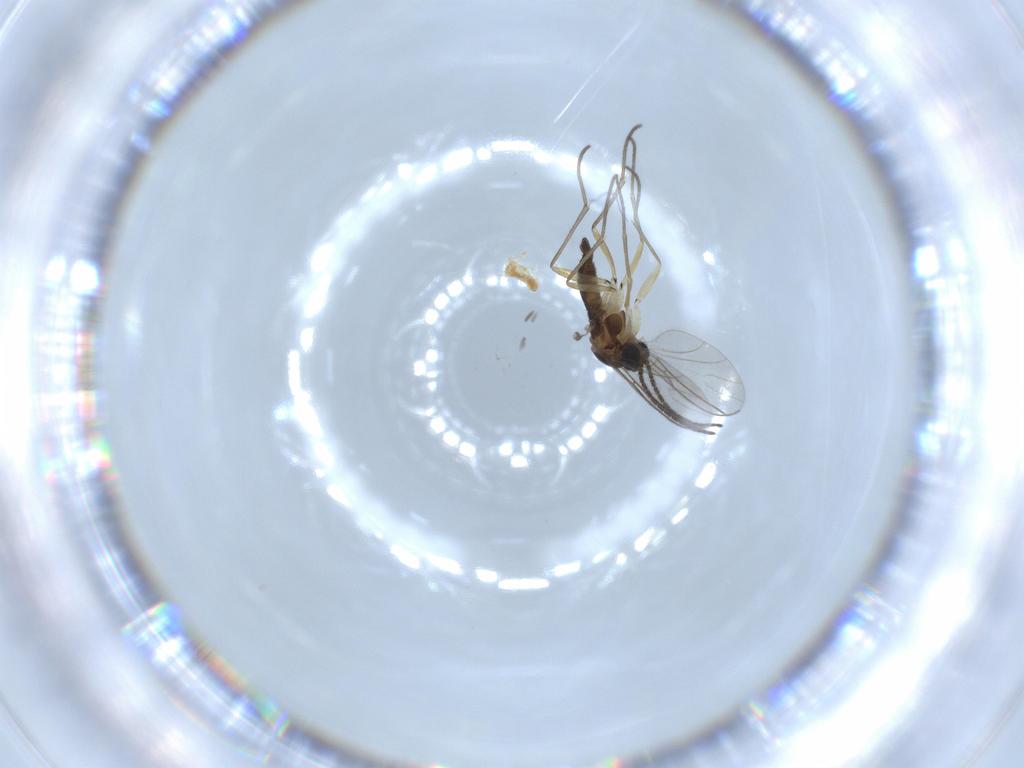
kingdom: Animalia
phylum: Arthropoda
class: Insecta
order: Diptera
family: Sciaridae
